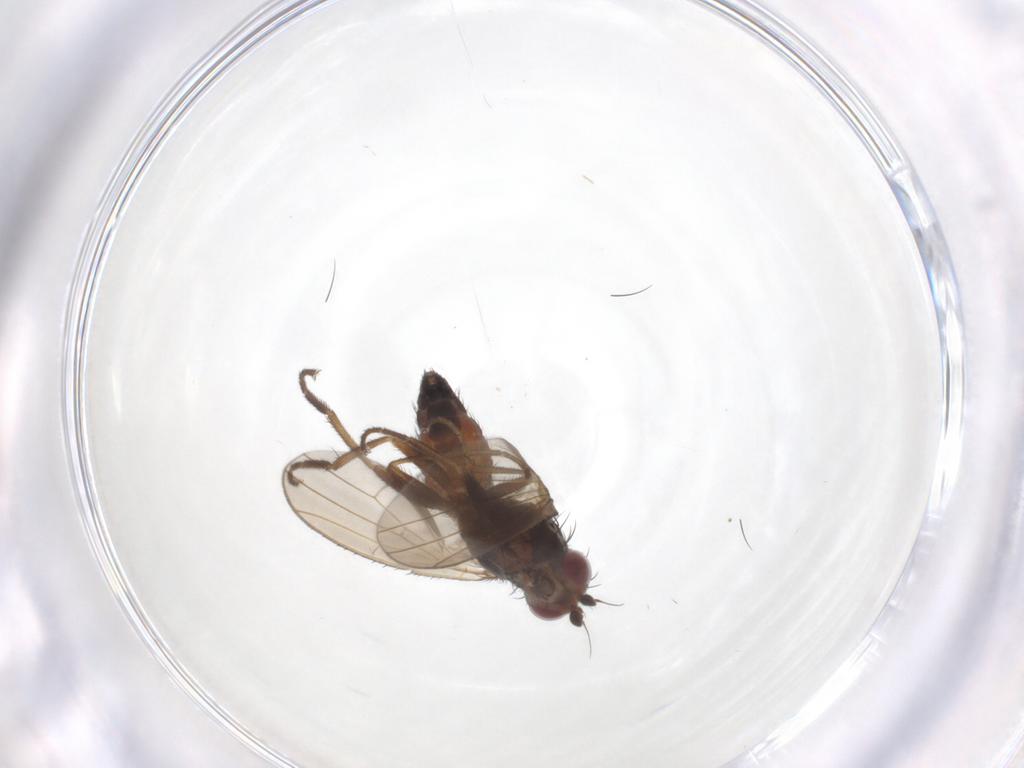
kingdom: Animalia
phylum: Arthropoda
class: Insecta
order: Diptera
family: Heleomyzidae
